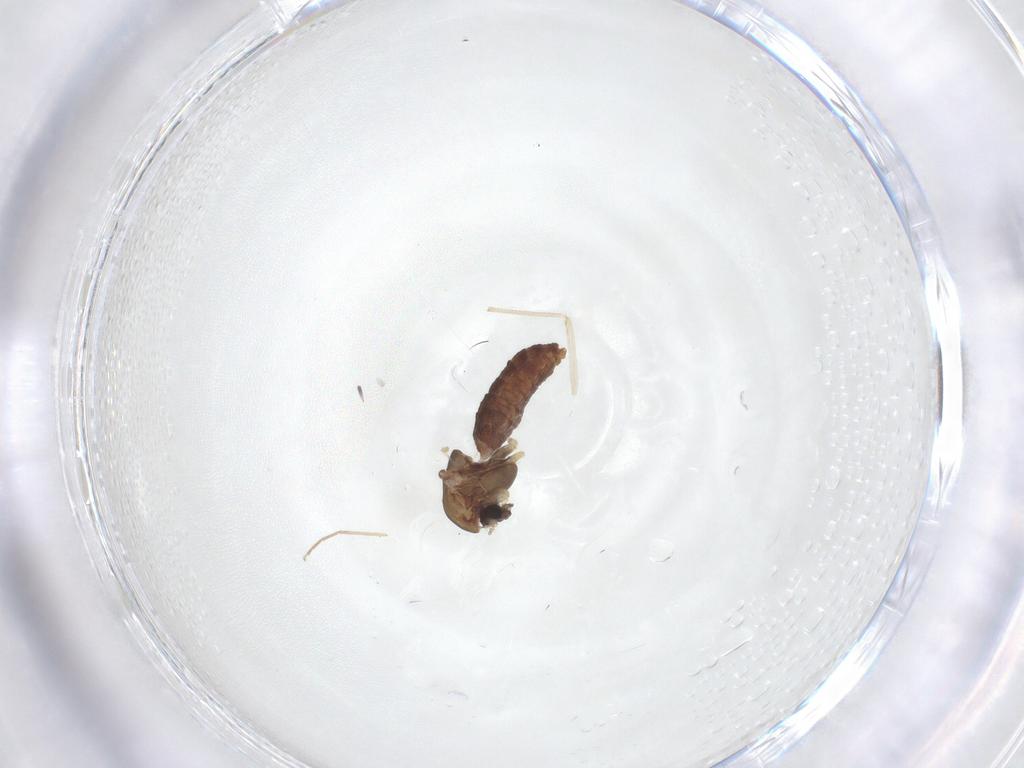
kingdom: Animalia
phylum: Arthropoda
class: Insecta
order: Diptera
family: Chironomidae
